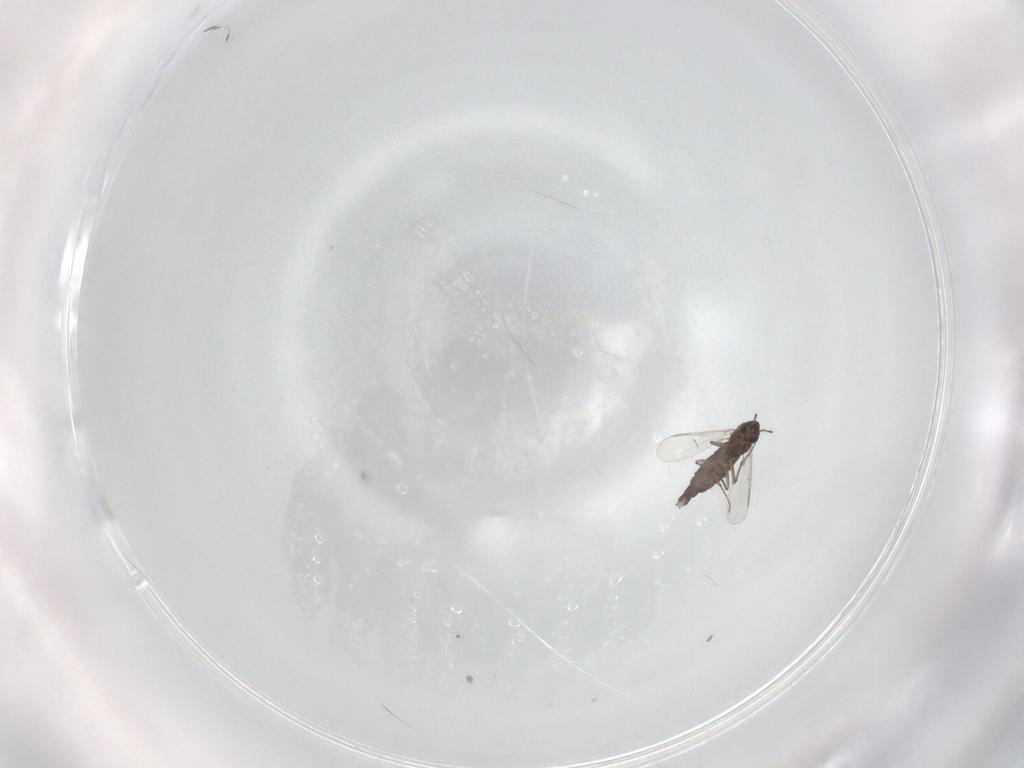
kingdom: Animalia
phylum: Arthropoda
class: Insecta
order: Diptera
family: Chironomidae
